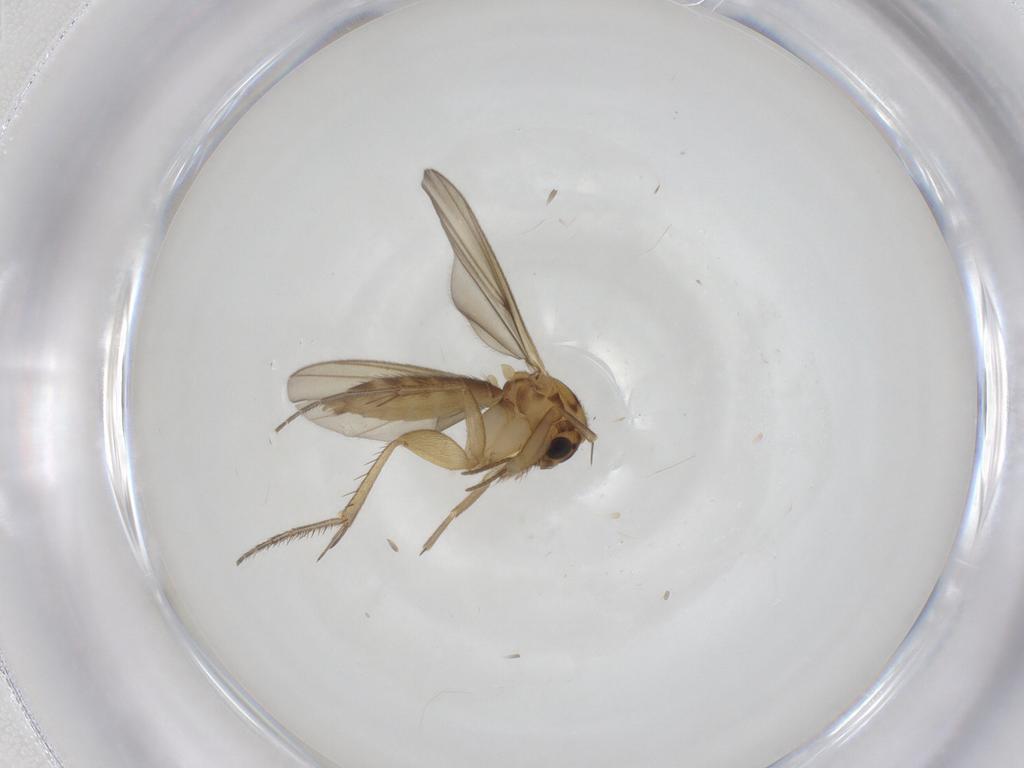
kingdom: Animalia
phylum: Arthropoda
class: Insecta
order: Diptera
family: Mycetophilidae
